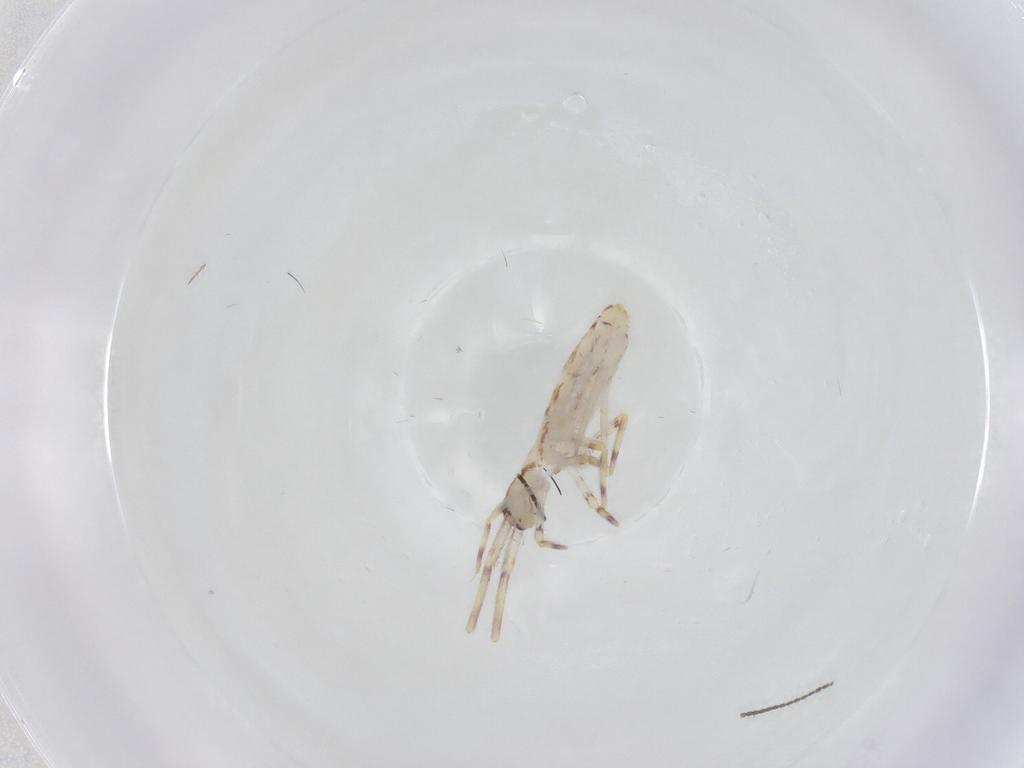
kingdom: Animalia
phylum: Arthropoda
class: Collembola
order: Entomobryomorpha
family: Entomobryidae
